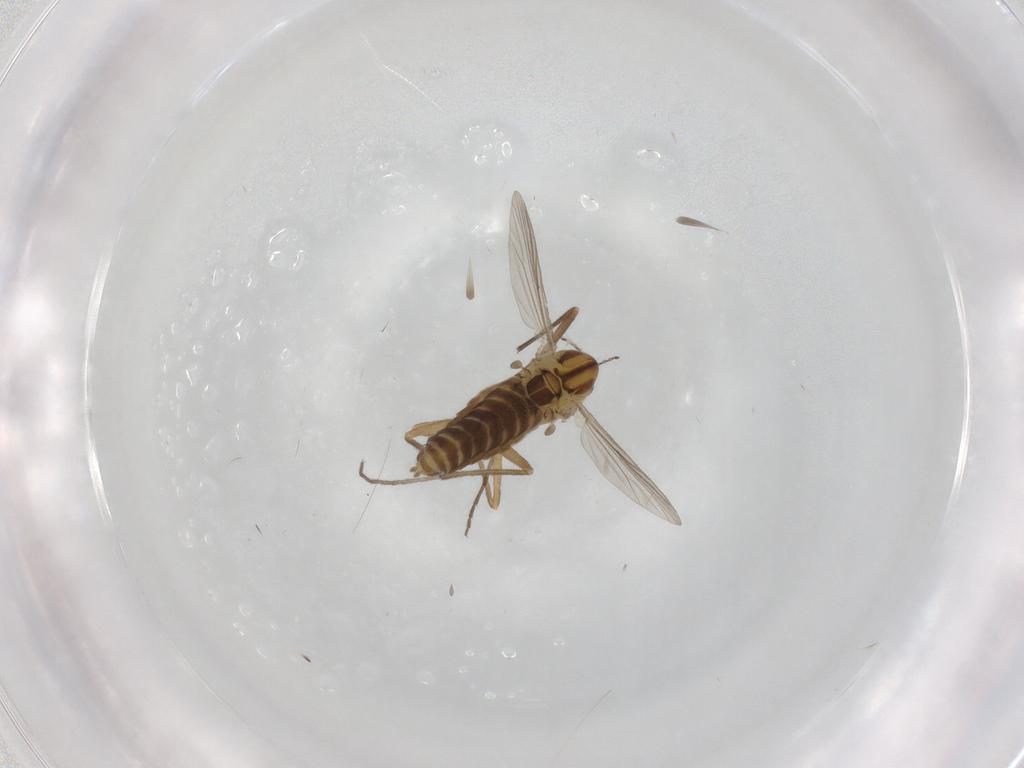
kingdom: Animalia
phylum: Arthropoda
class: Insecta
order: Diptera
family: Chironomidae
